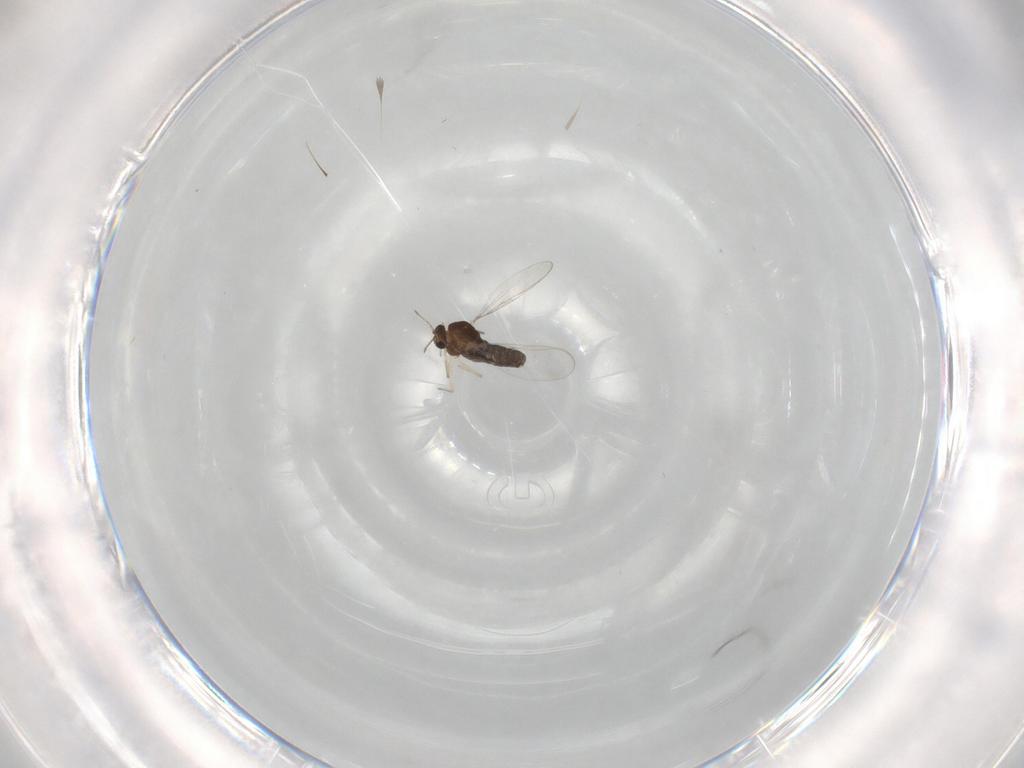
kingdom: Animalia
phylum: Arthropoda
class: Insecta
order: Diptera
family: Chironomidae
